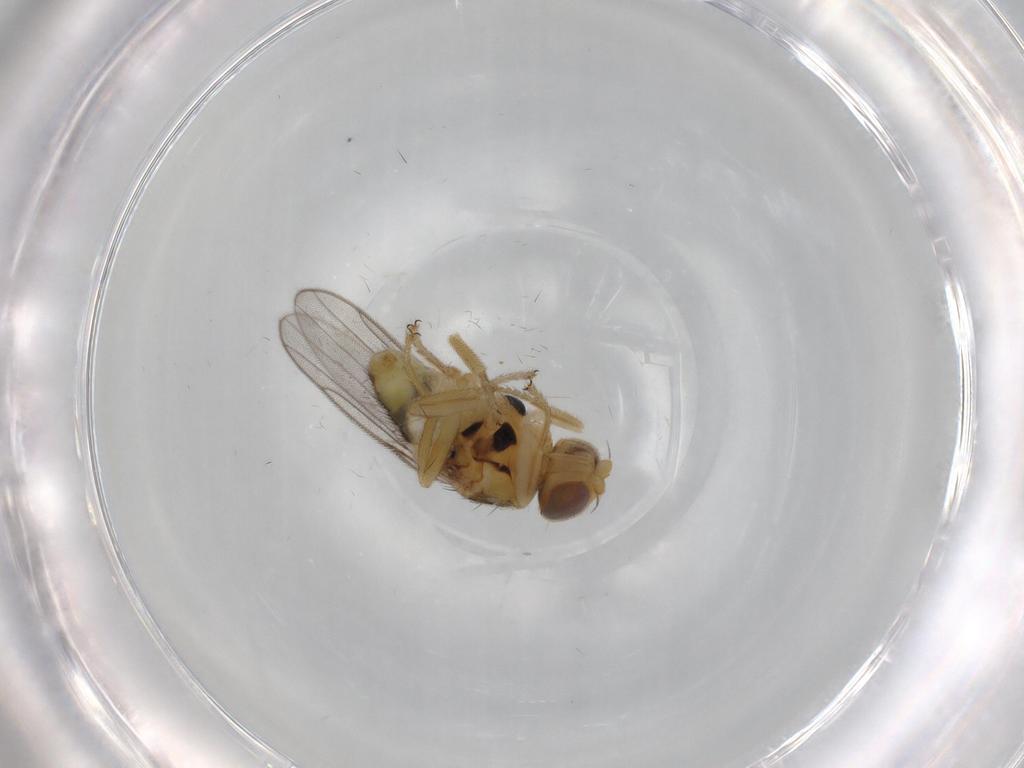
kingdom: Animalia
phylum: Arthropoda
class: Insecta
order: Diptera
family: Chloropidae
